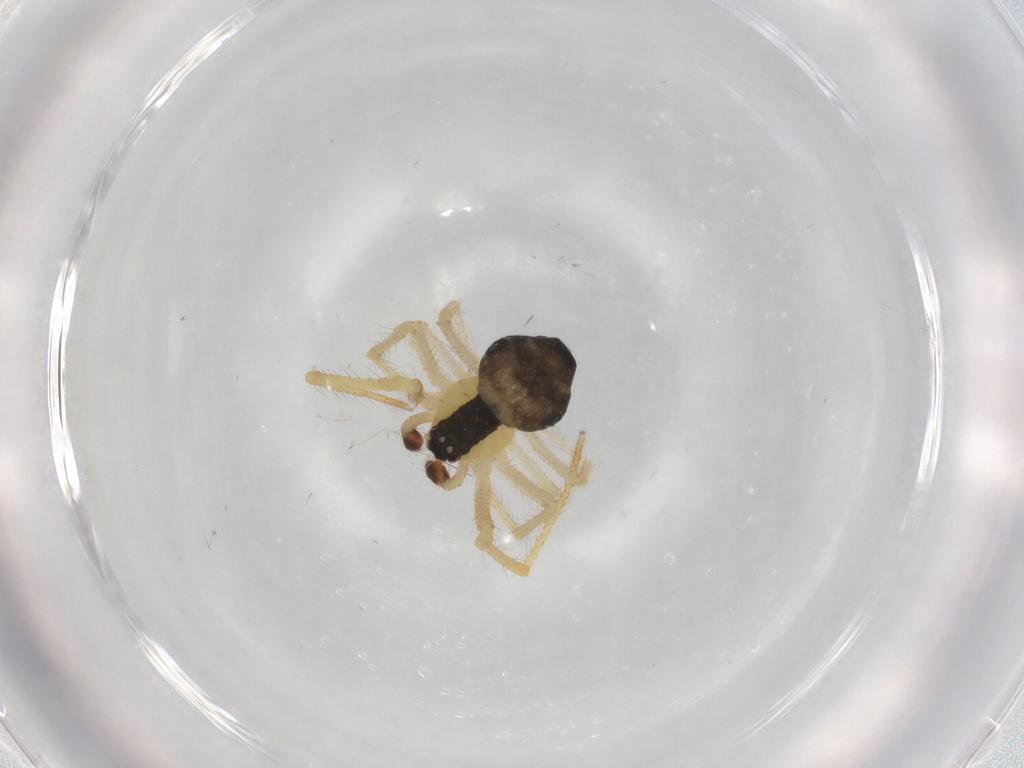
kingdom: Animalia
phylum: Arthropoda
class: Arachnida
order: Araneae
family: Theridiidae
